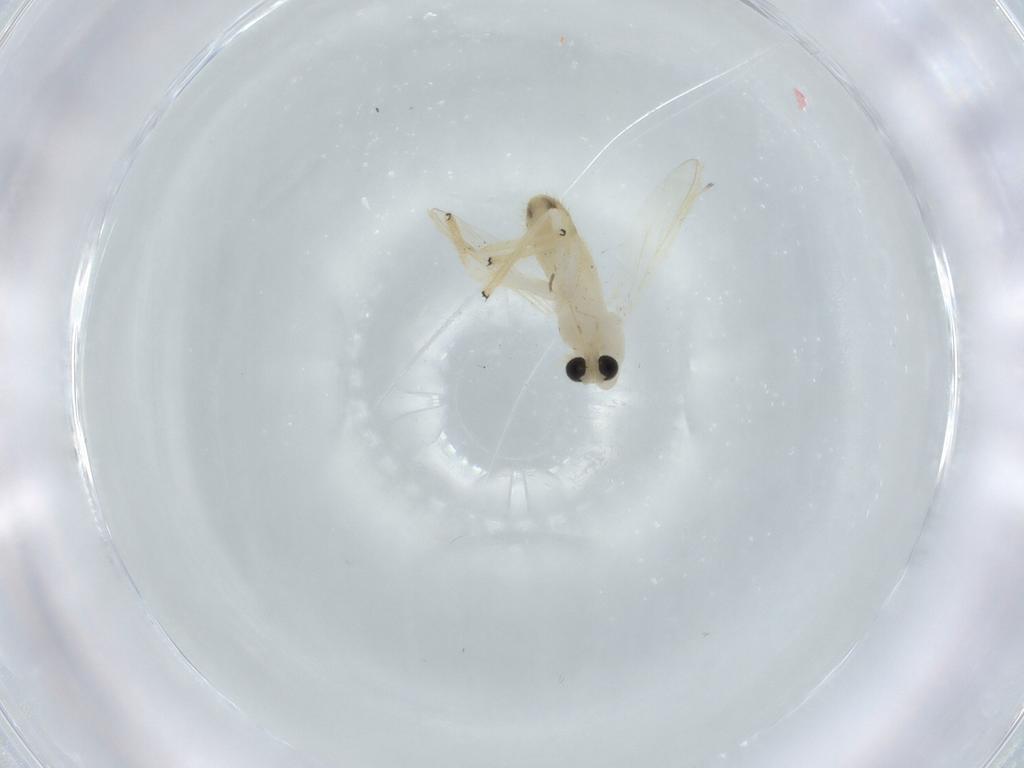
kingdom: Animalia
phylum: Arthropoda
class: Insecta
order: Diptera
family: Chironomidae
